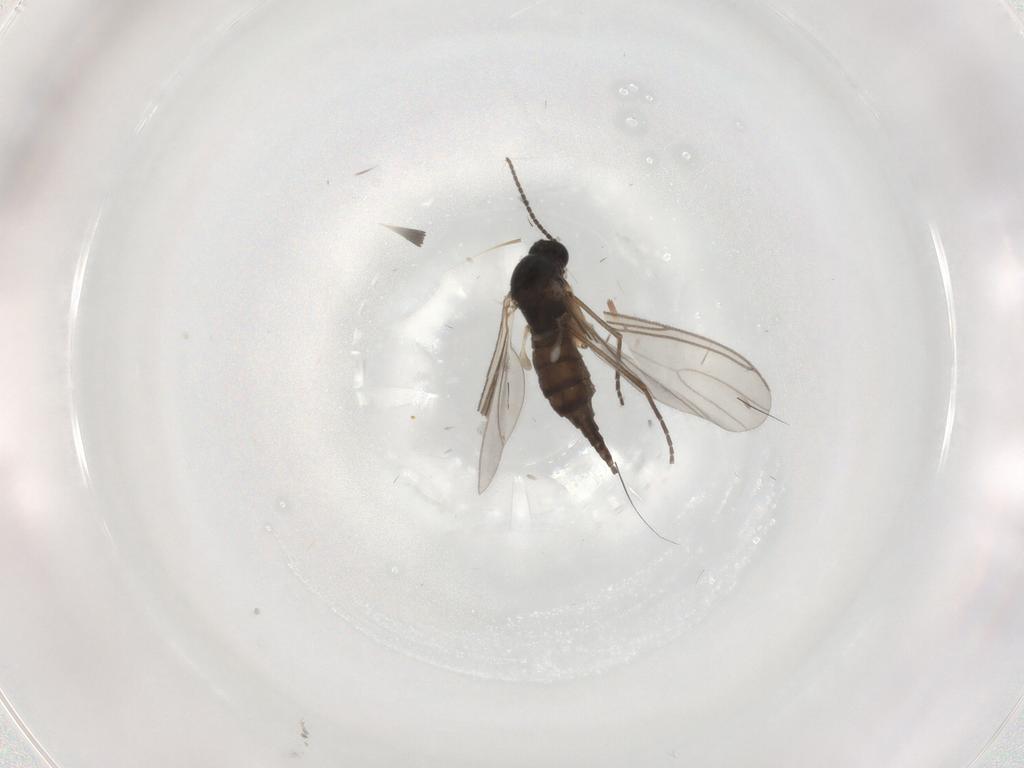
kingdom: Animalia
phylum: Arthropoda
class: Insecta
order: Diptera
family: Sciaridae
